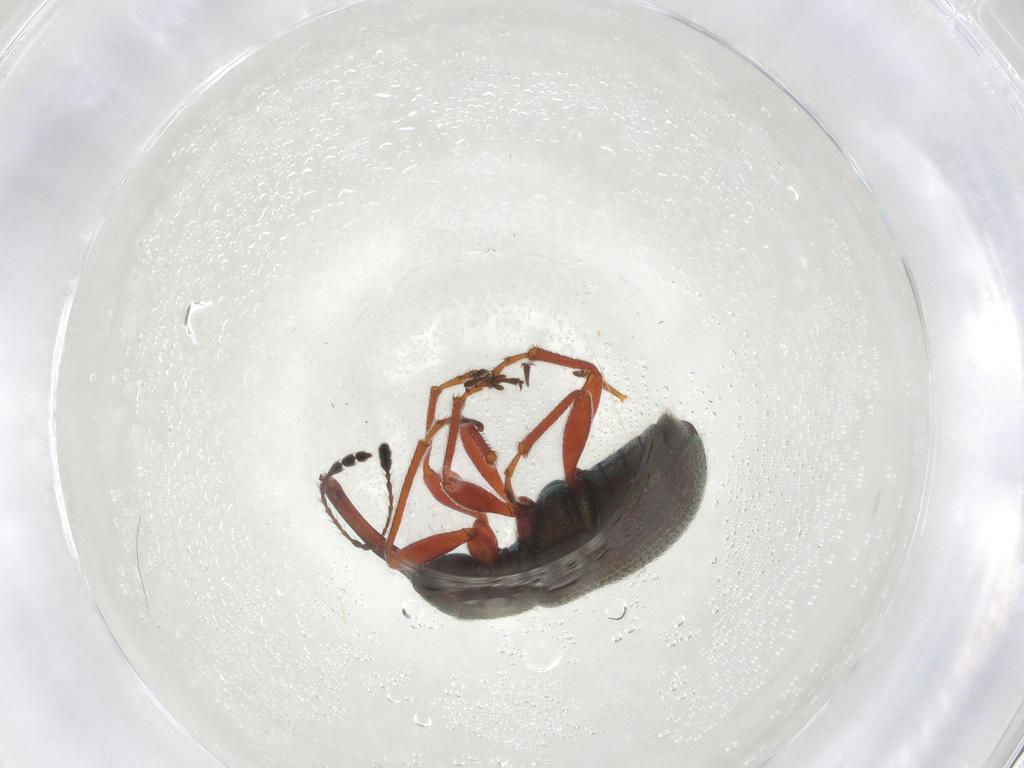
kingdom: Animalia
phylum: Arthropoda
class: Insecta
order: Coleoptera
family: Attelabidae
